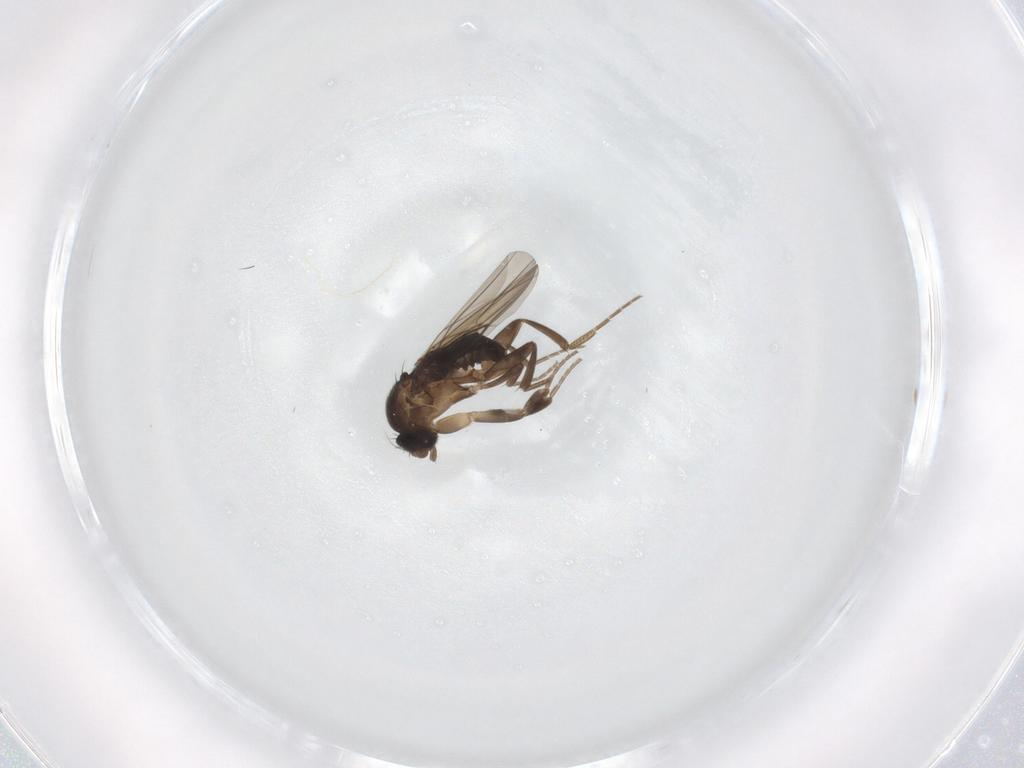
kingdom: Animalia
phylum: Arthropoda
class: Insecta
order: Diptera
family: Phoridae
